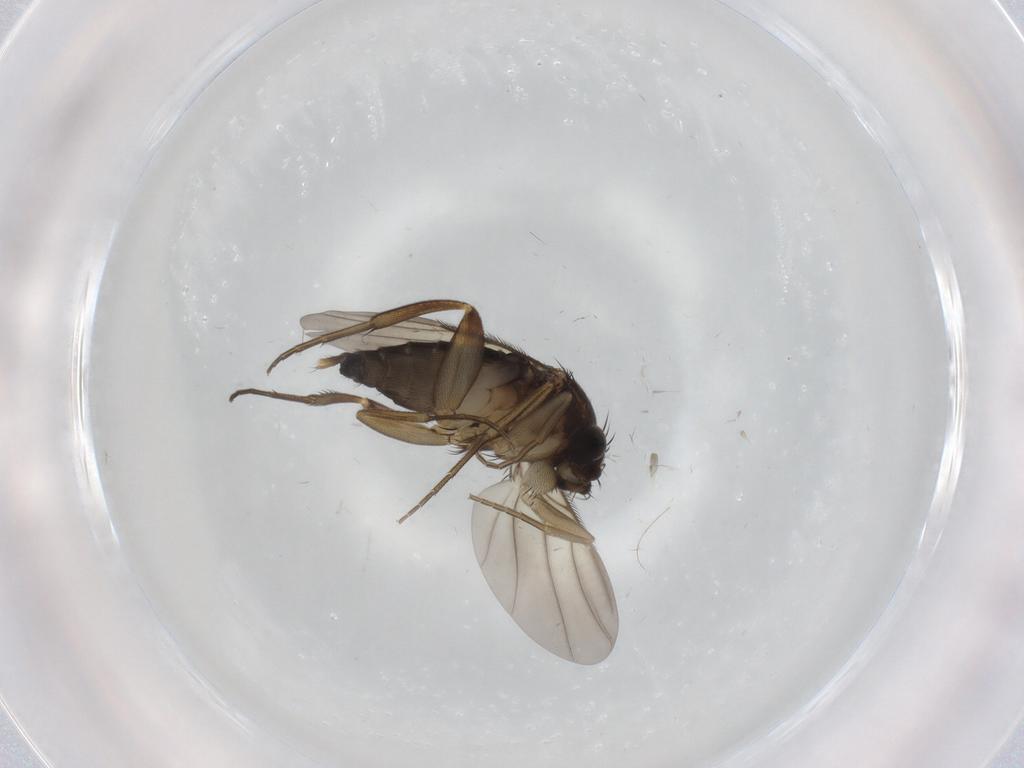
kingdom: Animalia
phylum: Arthropoda
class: Insecta
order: Diptera
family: Phoridae
